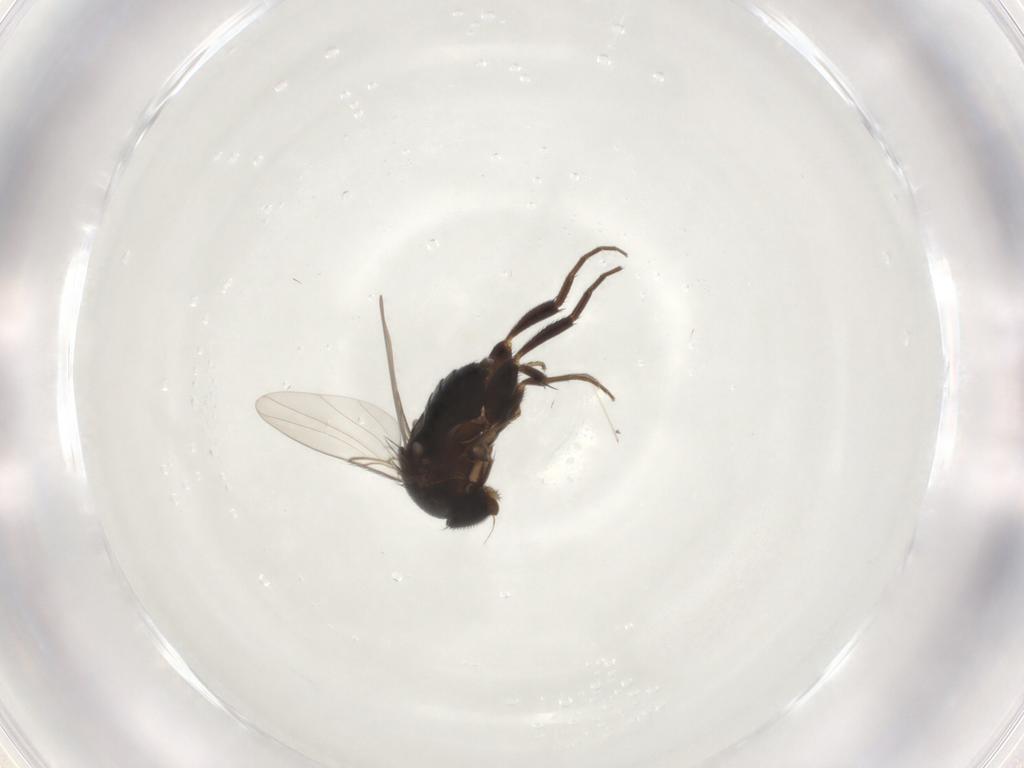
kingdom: Animalia
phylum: Arthropoda
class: Insecta
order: Diptera
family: Phoridae
